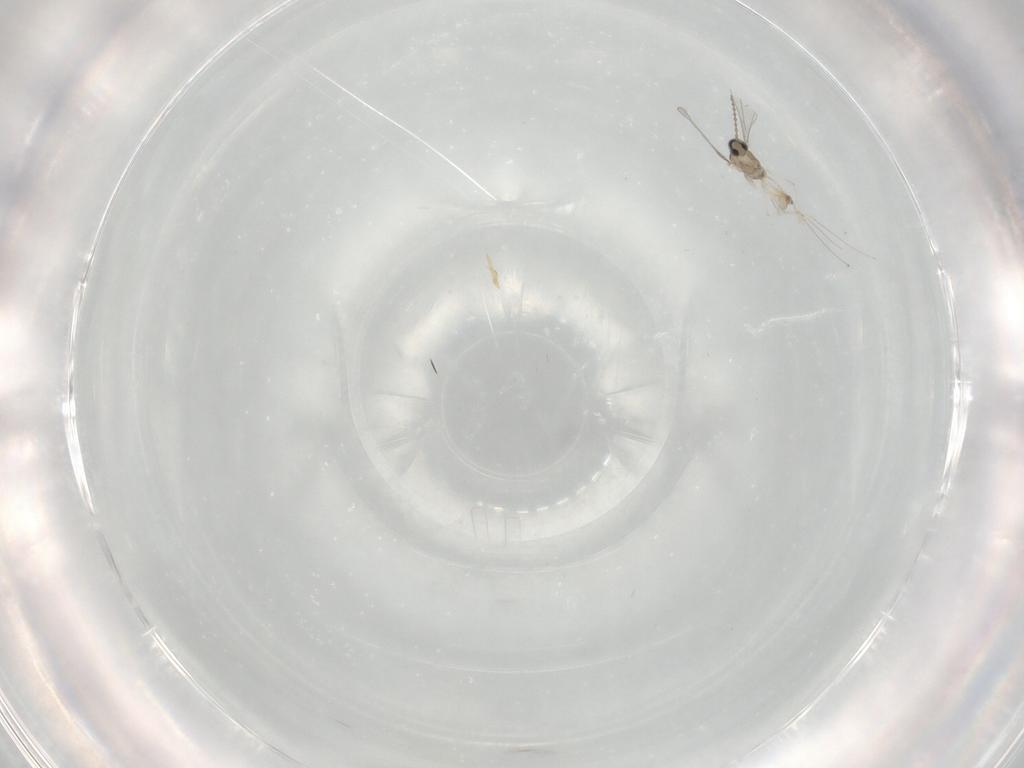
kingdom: Animalia
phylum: Arthropoda
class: Insecta
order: Diptera
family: Cecidomyiidae
